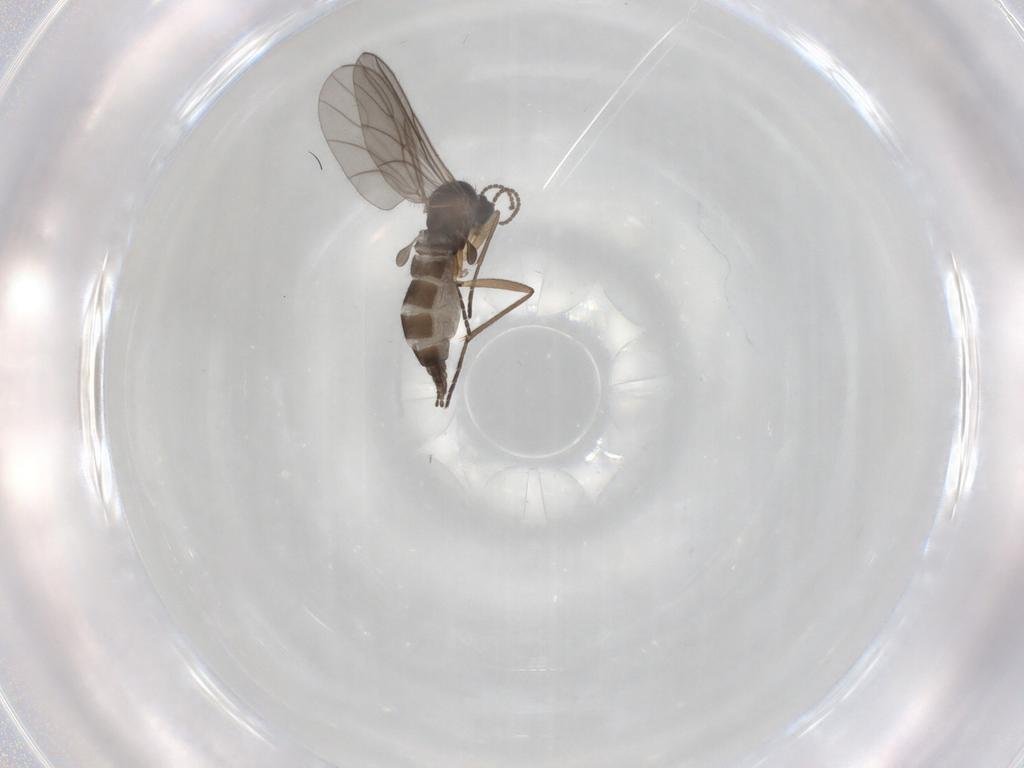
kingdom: Animalia
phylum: Arthropoda
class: Insecta
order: Diptera
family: Sciaridae
